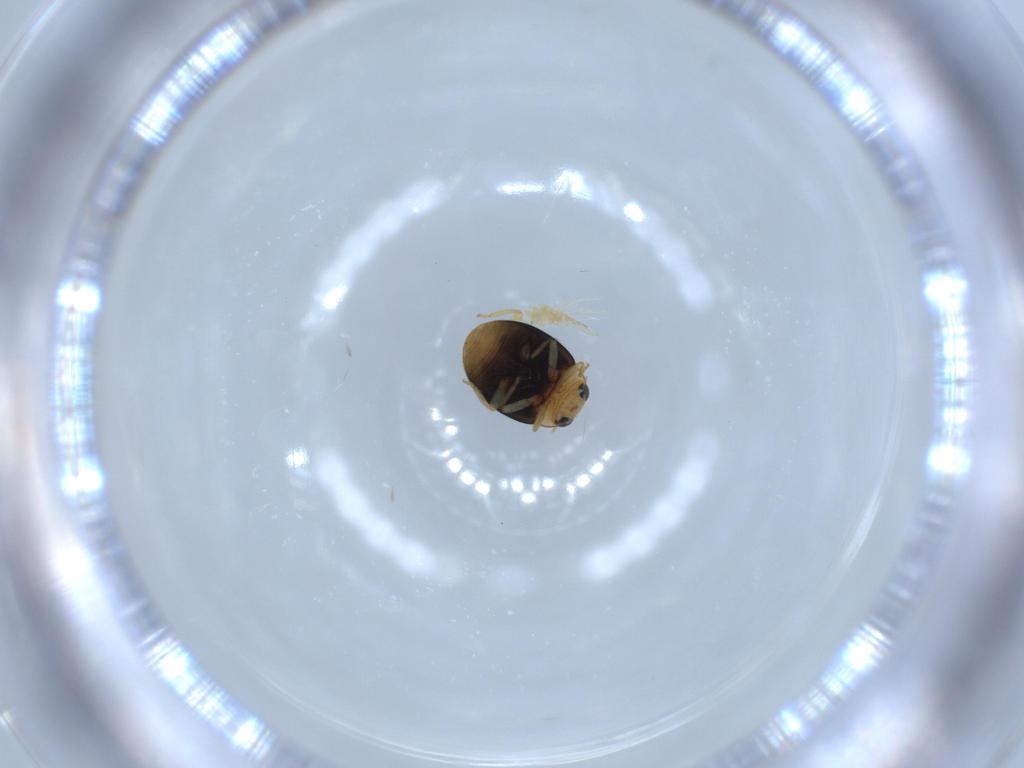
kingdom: Animalia
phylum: Arthropoda
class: Insecta
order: Coleoptera
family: Coccinellidae
